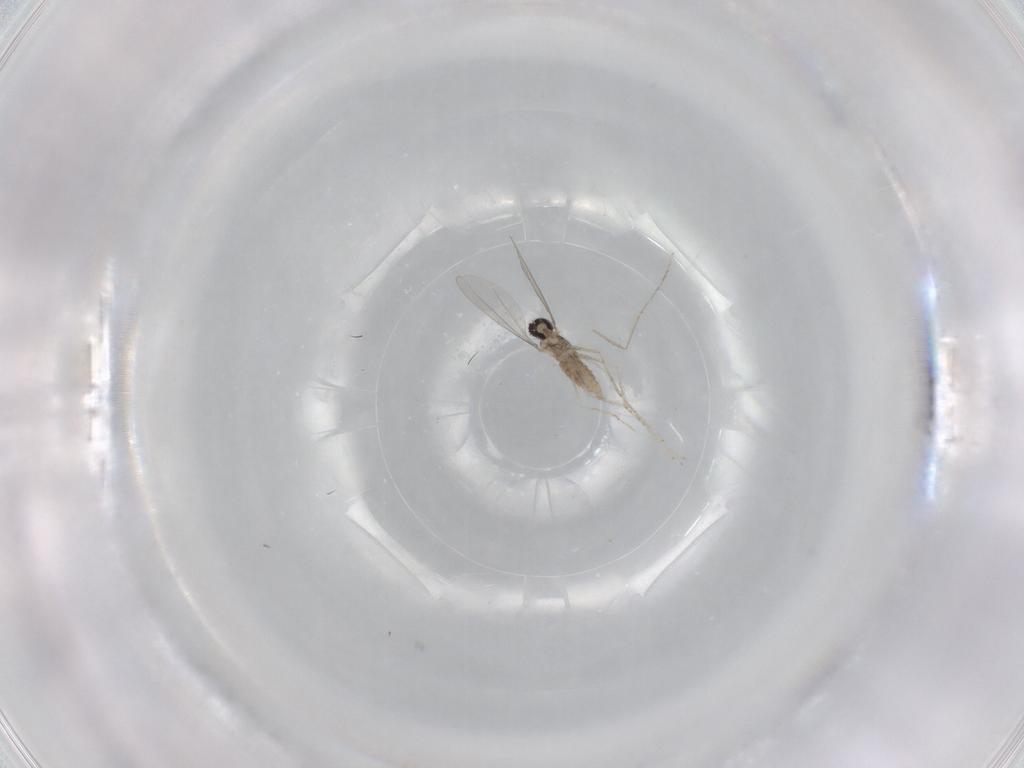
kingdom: Animalia
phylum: Arthropoda
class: Insecta
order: Diptera
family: Cecidomyiidae
